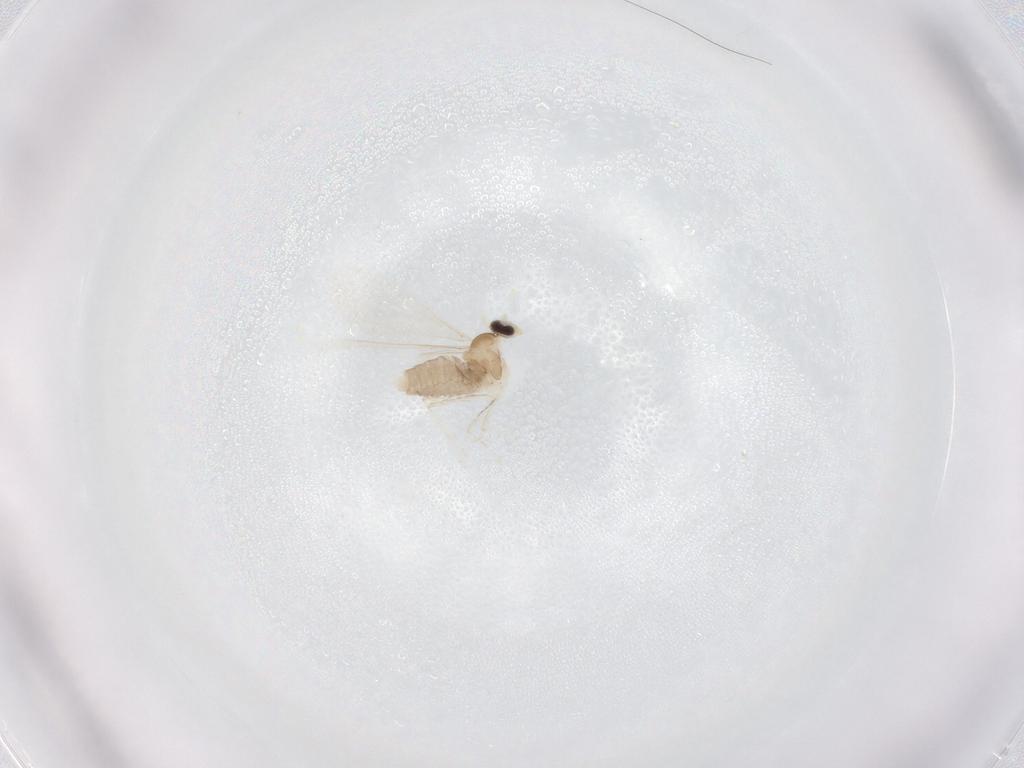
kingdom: Animalia
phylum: Arthropoda
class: Insecta
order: Diptera
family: Cecidomyiidae
